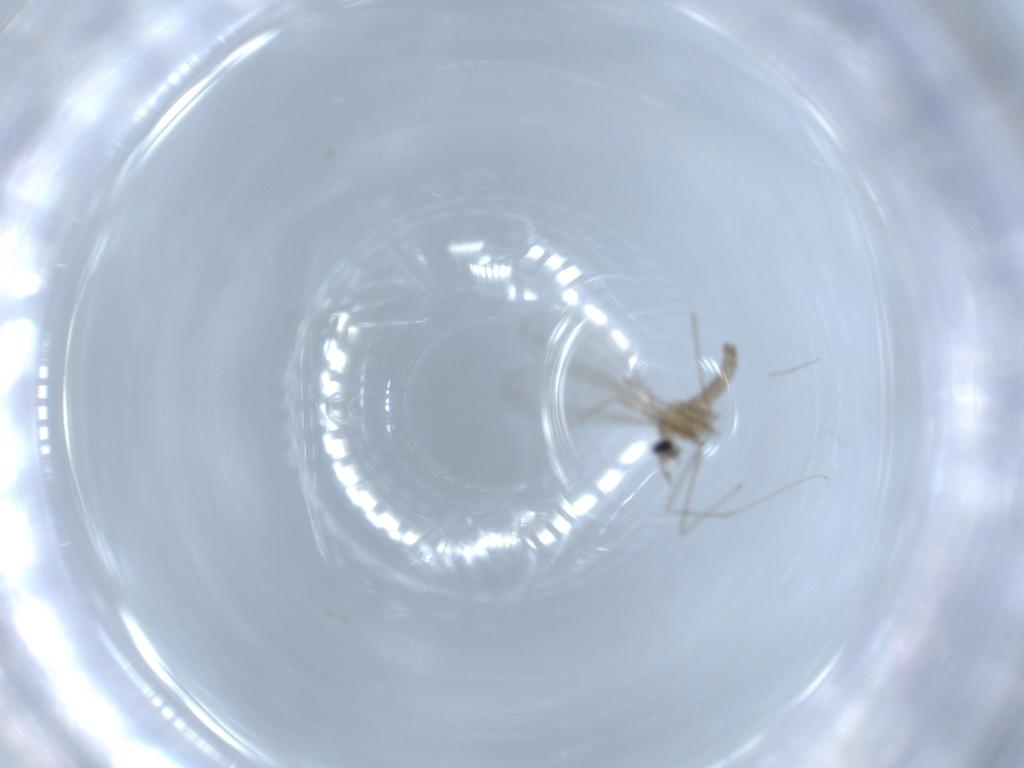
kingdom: Animalia
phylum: Arthropoda
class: Insecta
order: Diptera
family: Cecidomyiidae
